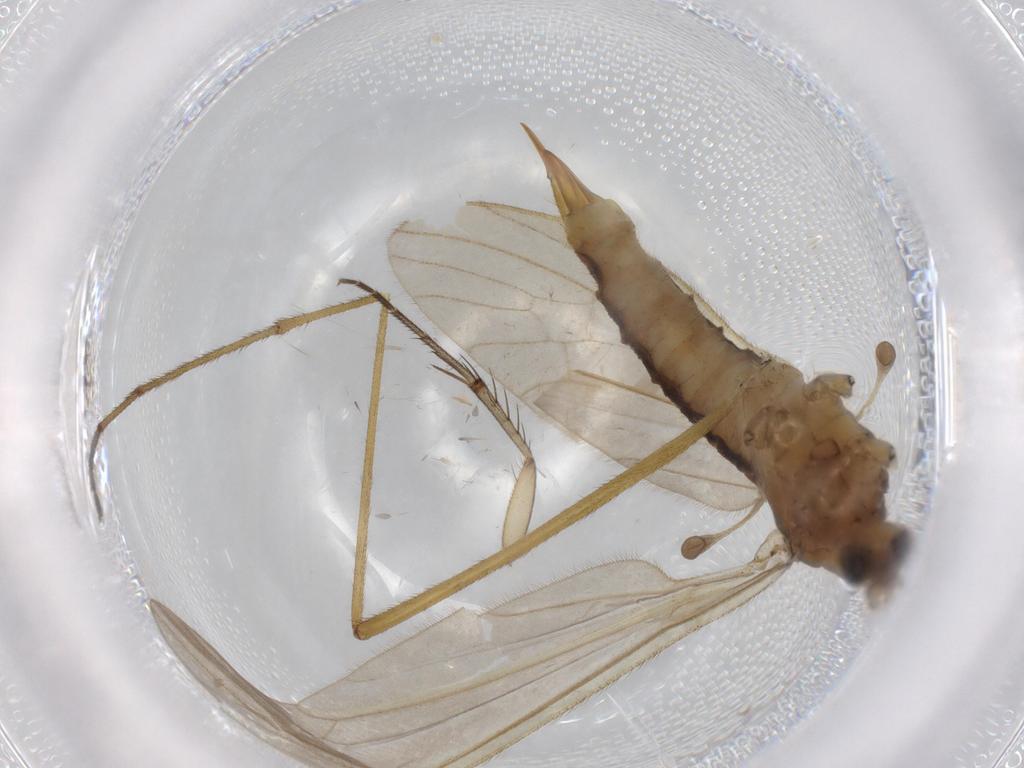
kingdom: Animalia
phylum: Arthropoda
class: Insecta
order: Diptera
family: Limoniidae
